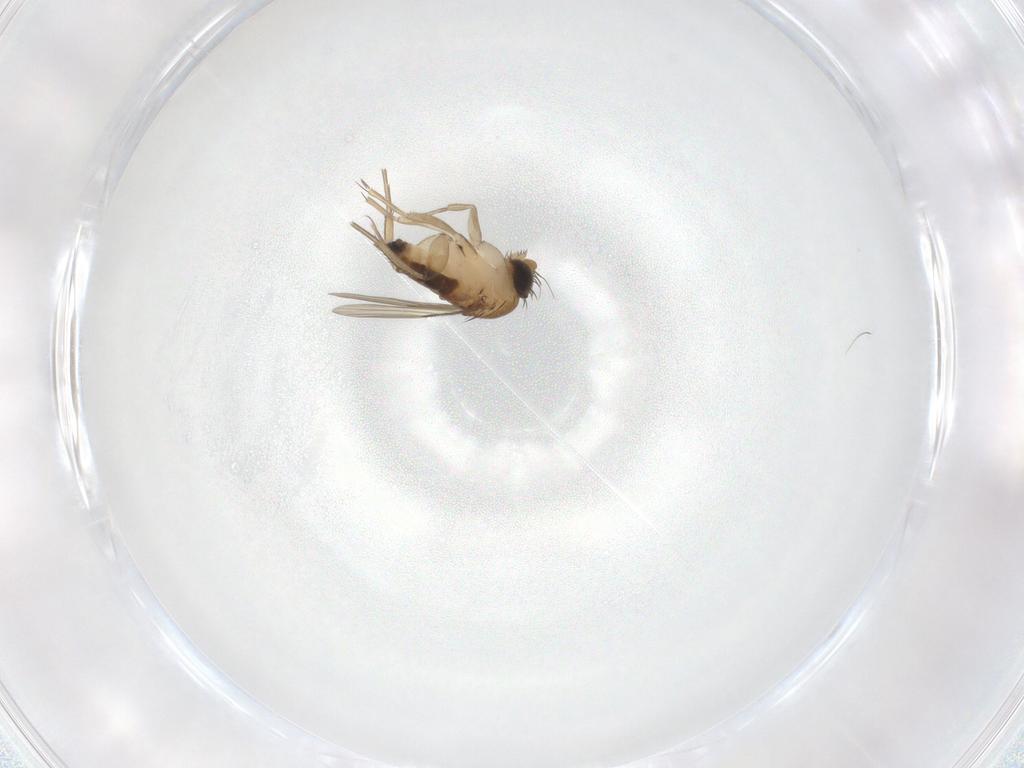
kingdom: Animalia
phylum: Arthropoda
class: Insecta
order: Diptera
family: Phoridae
